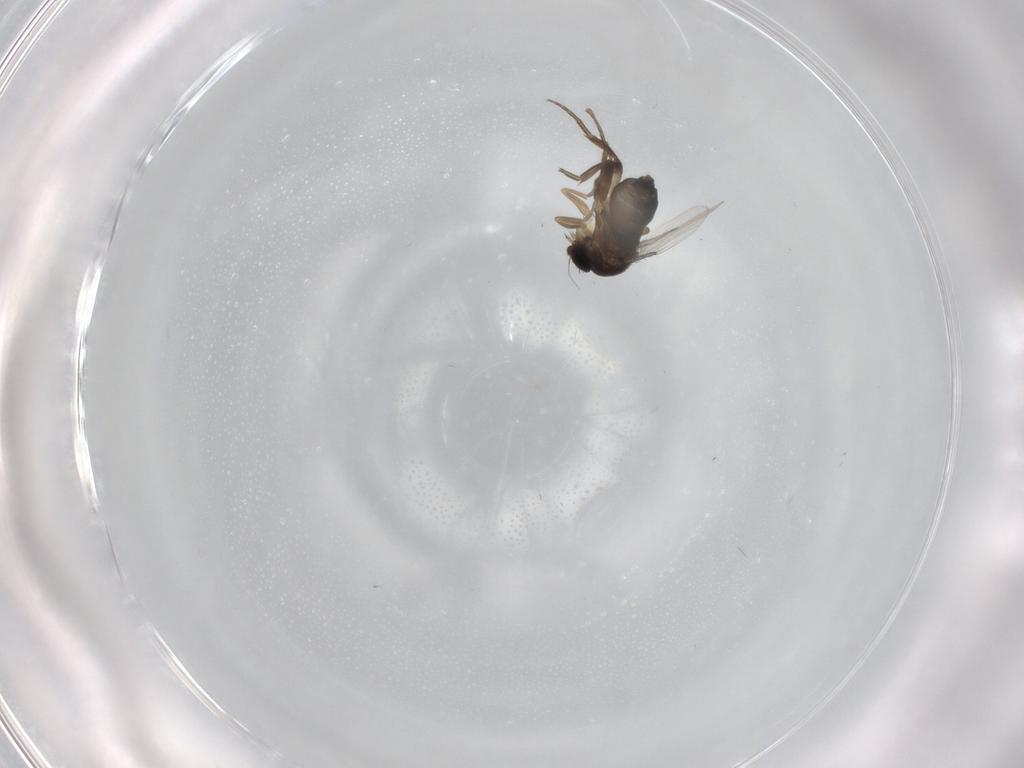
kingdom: Animalia
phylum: Arthropoda
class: Insecta
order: Diptera
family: Phoridae
